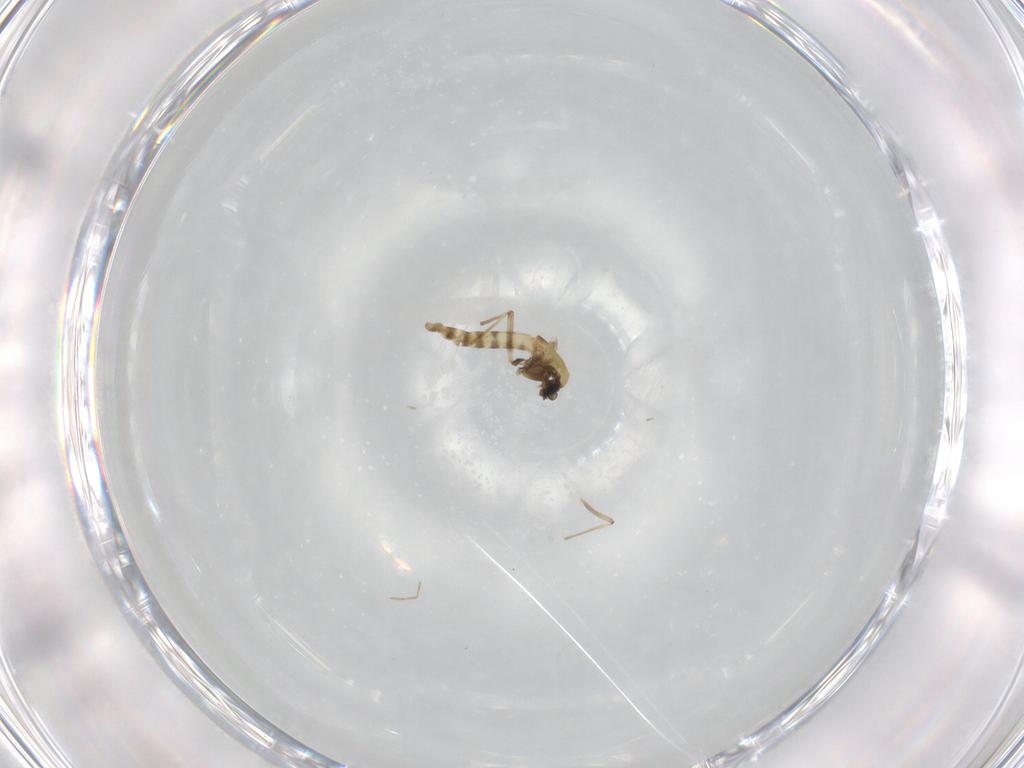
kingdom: Animalia
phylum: Arthropoda
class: Insecta
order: Diptera
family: Chironomidae
